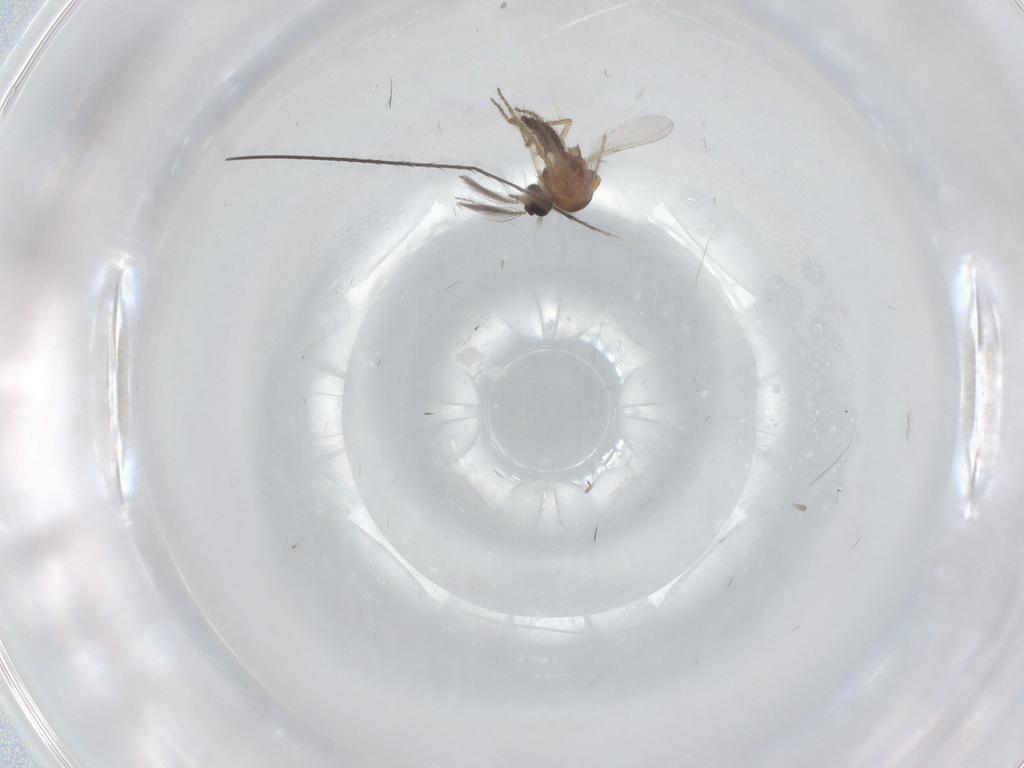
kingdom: Animalia
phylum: Arthropoda
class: Insecta
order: Diptera
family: Ceratopogonidae
